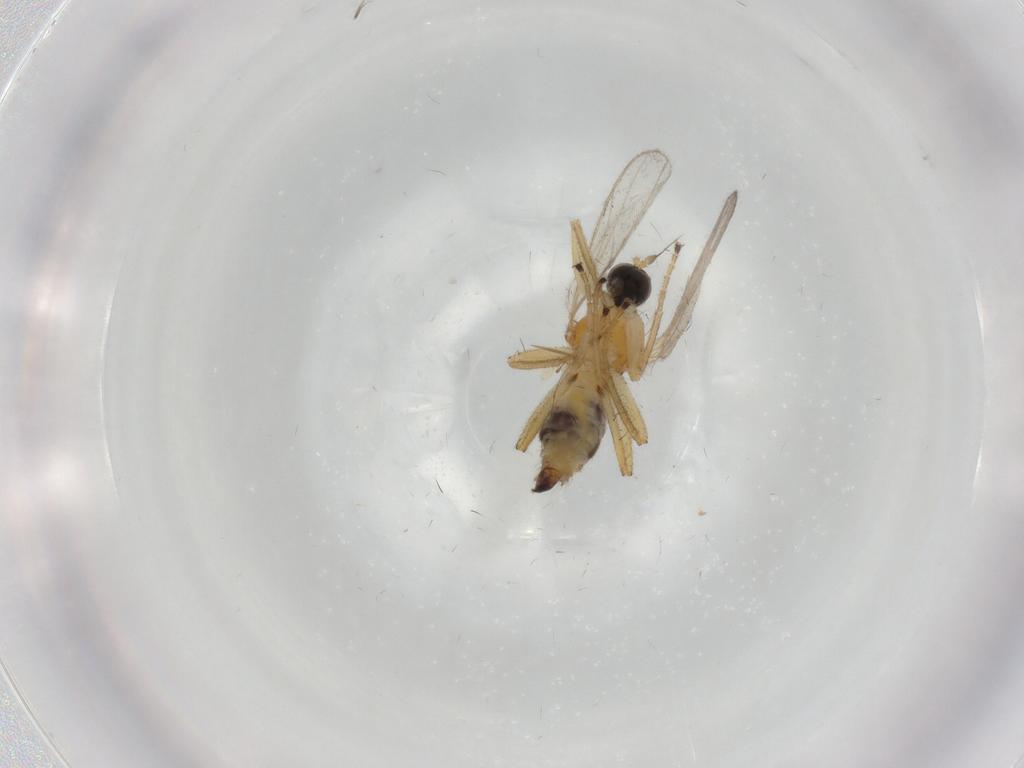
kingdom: Animalia
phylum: Arthropoda
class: Insecta
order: Diptera
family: Hybotidae
